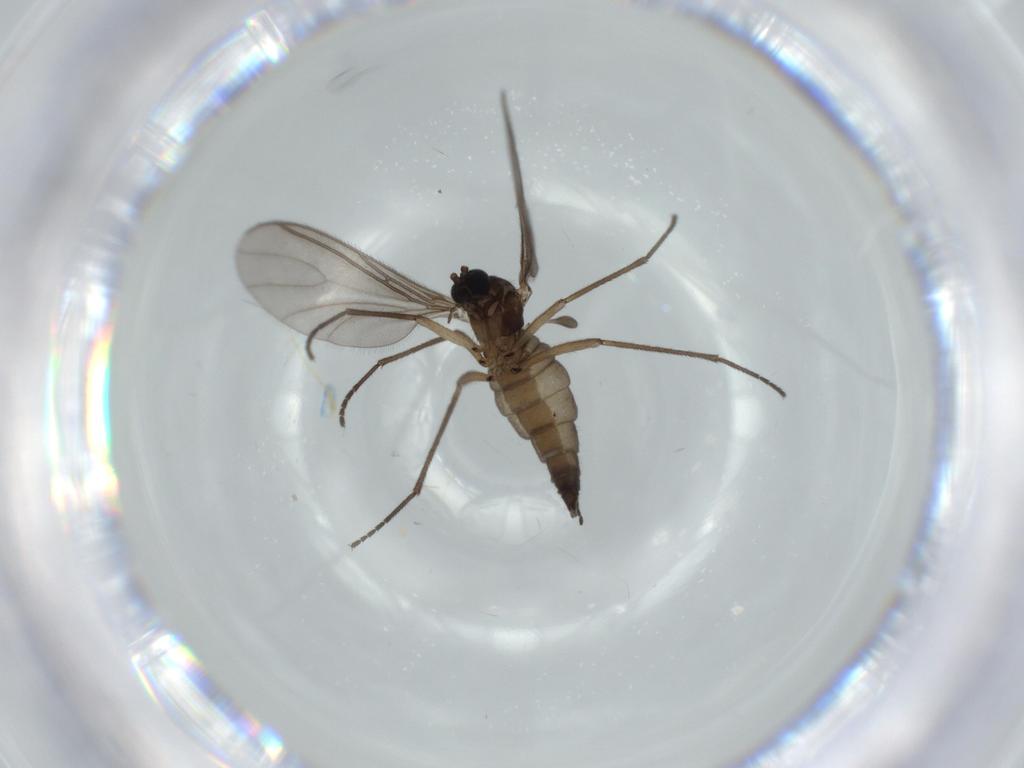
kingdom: Animalia
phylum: Arthropoda
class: Insecta
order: Diptera
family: Sciaridae
